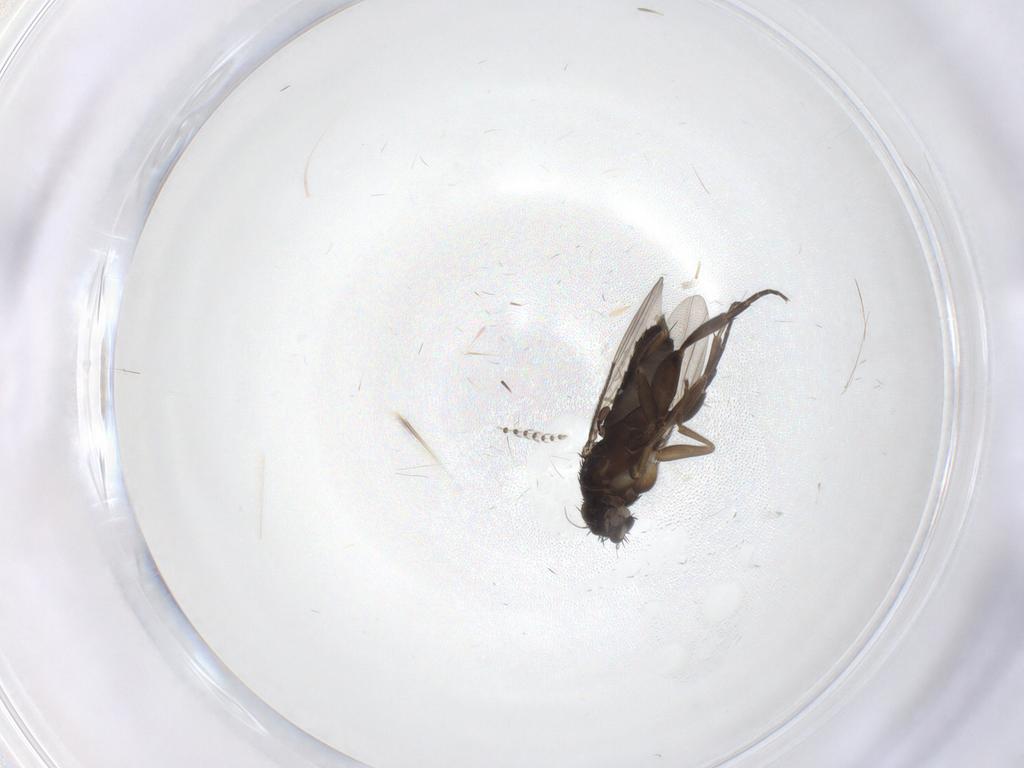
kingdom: Animalia
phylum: Arthropoda
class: Insecta
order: Diptera
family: Phoridae
